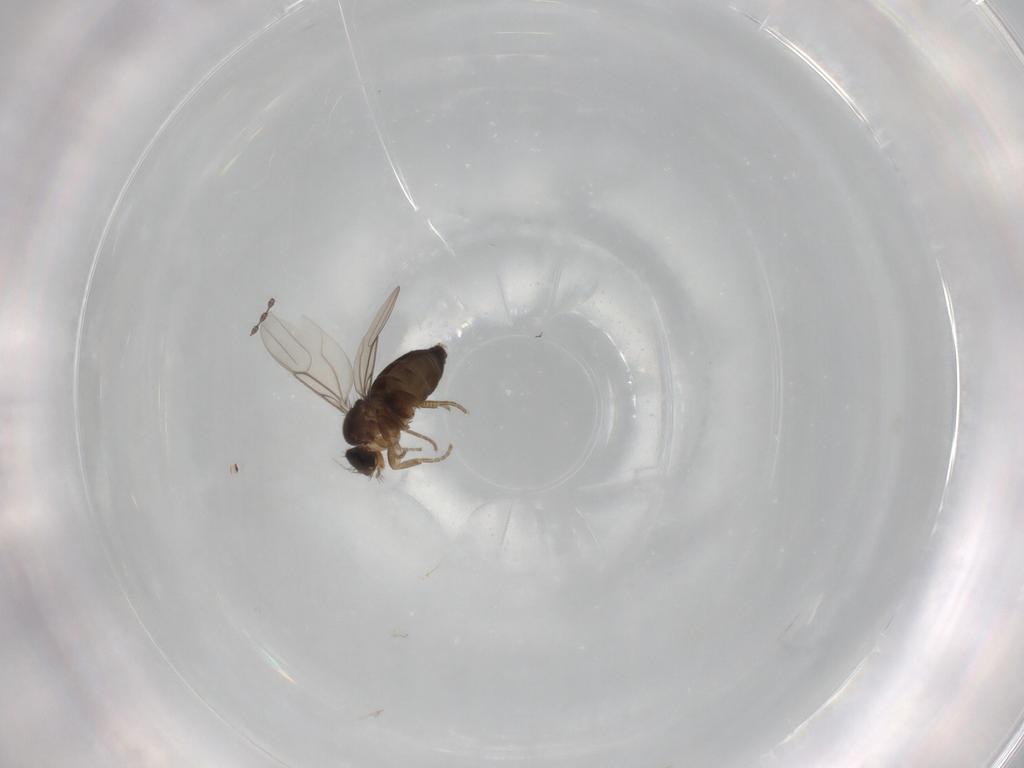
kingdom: Animalia
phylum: Arthropoda
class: Insecta
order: Diptera
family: Phoridae
